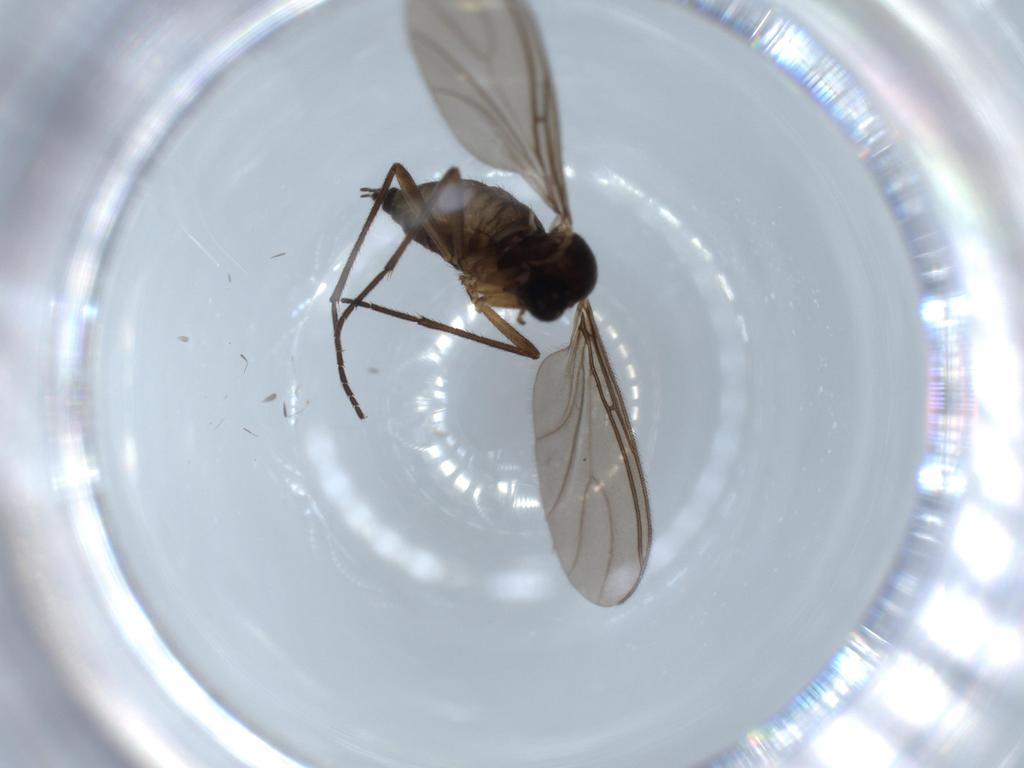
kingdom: Animalia
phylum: Arthropoda
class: Insecta
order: Diptera
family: Sciaridae
